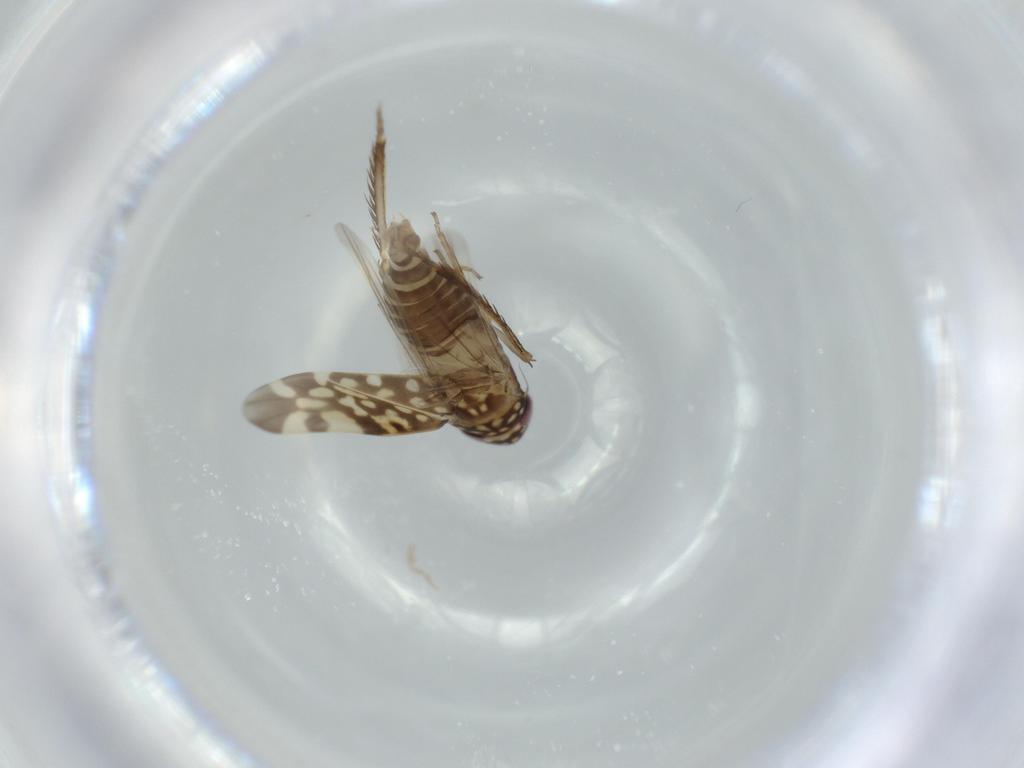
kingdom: Animalia
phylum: Arthropoda
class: Insecta
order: Hemiptera
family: Cicadellidae
